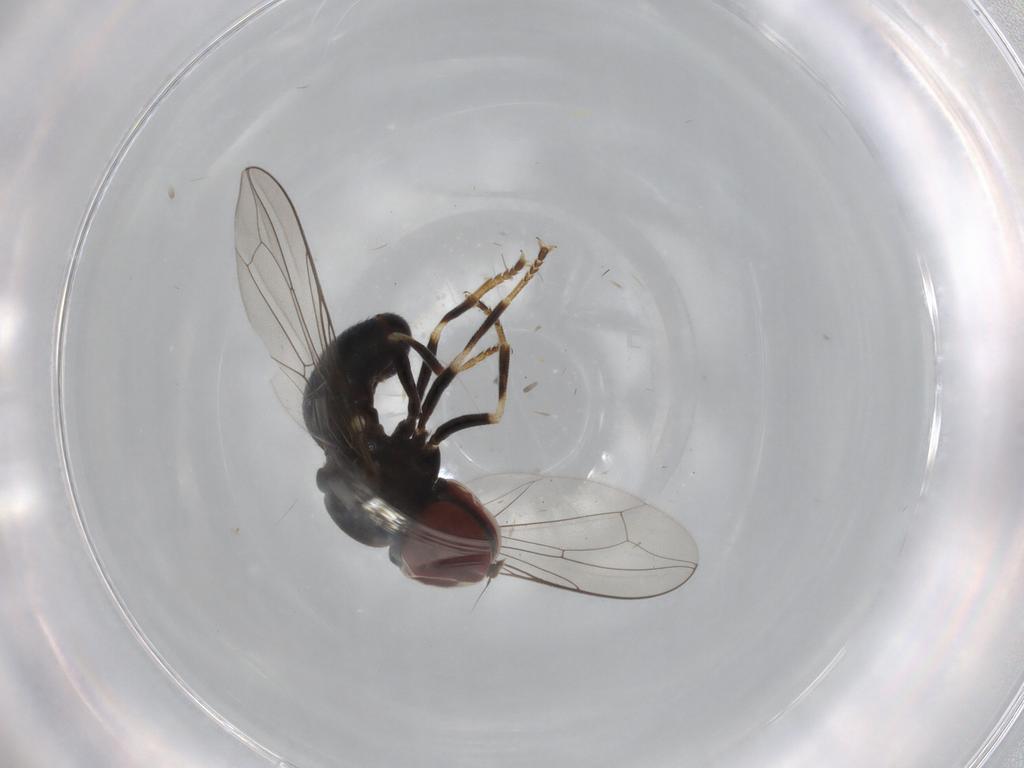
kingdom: Animalia
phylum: Arthropoda
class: Insecta
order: Diptera
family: Pipunculidae
